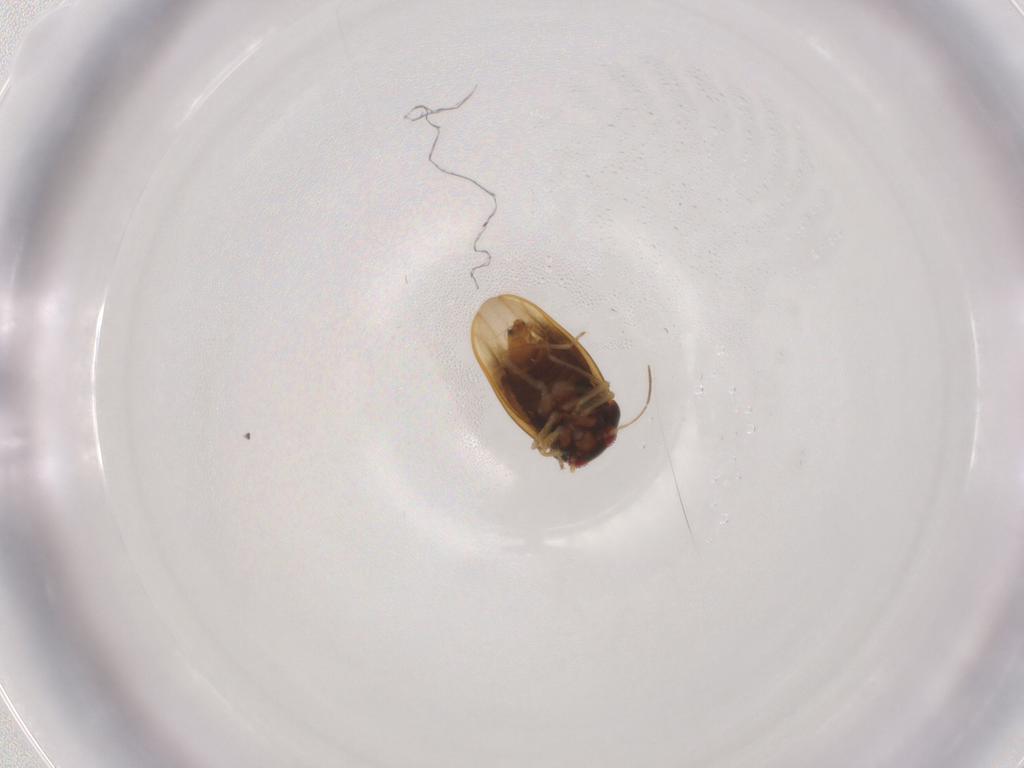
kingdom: Animalia
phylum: Arthropoda
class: Insecta
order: Hemiptera
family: Schizopteridae
